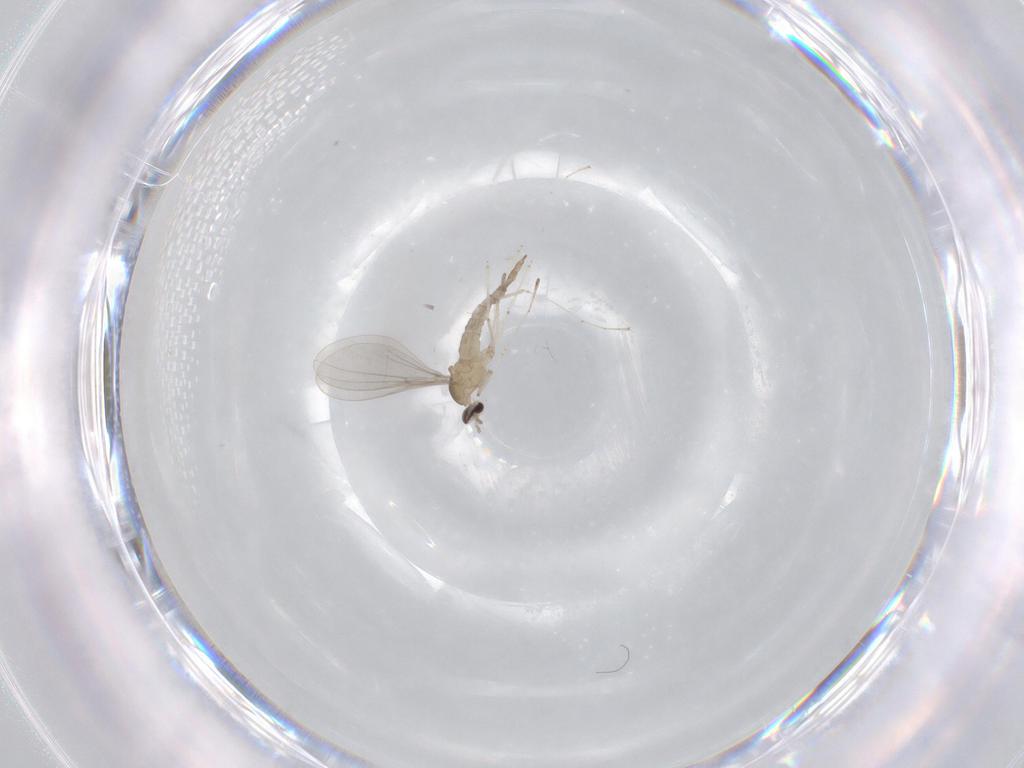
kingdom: Animalia
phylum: Arthropoda
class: Insecta
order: Diptera
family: Cecidomyiidae
